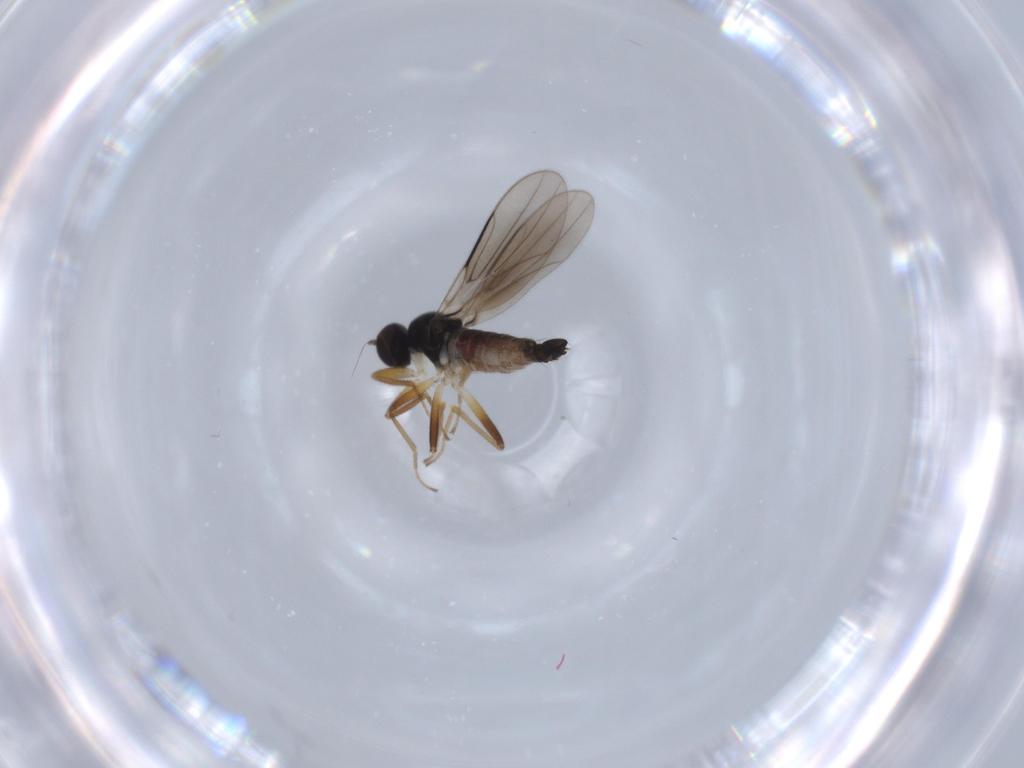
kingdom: Animalia
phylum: Arthropoda
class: Insecta
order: Diptera
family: Hybotidae
